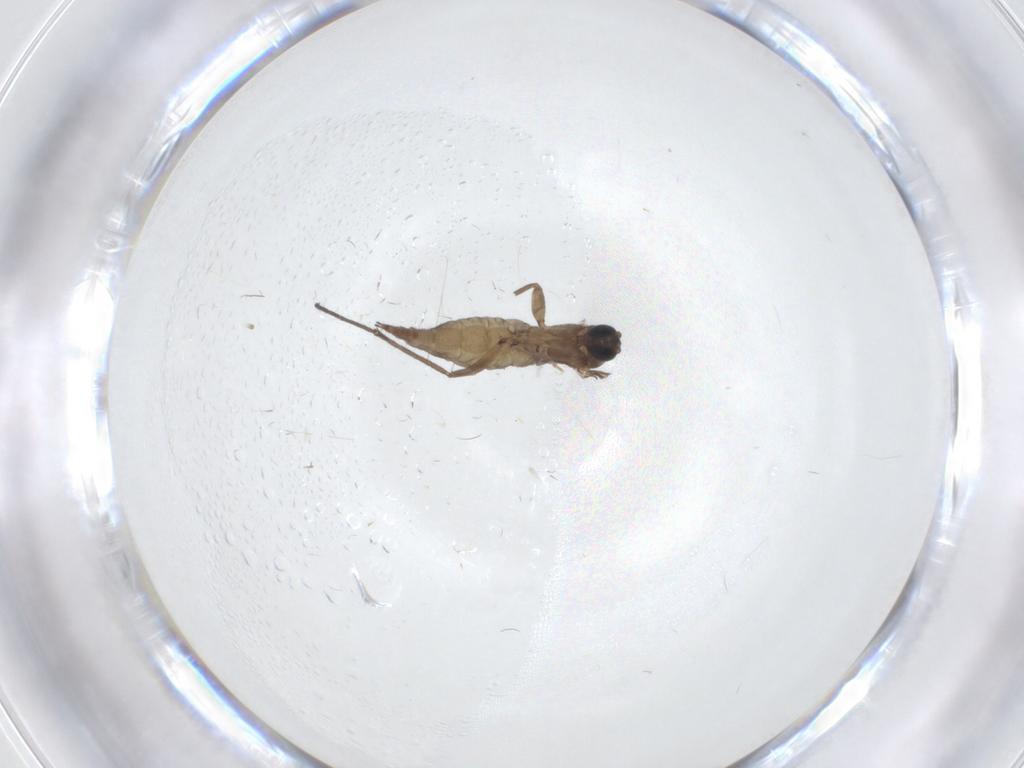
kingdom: Animalia
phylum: Arthropoda
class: Insecta
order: Diptera
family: Sciaridae
